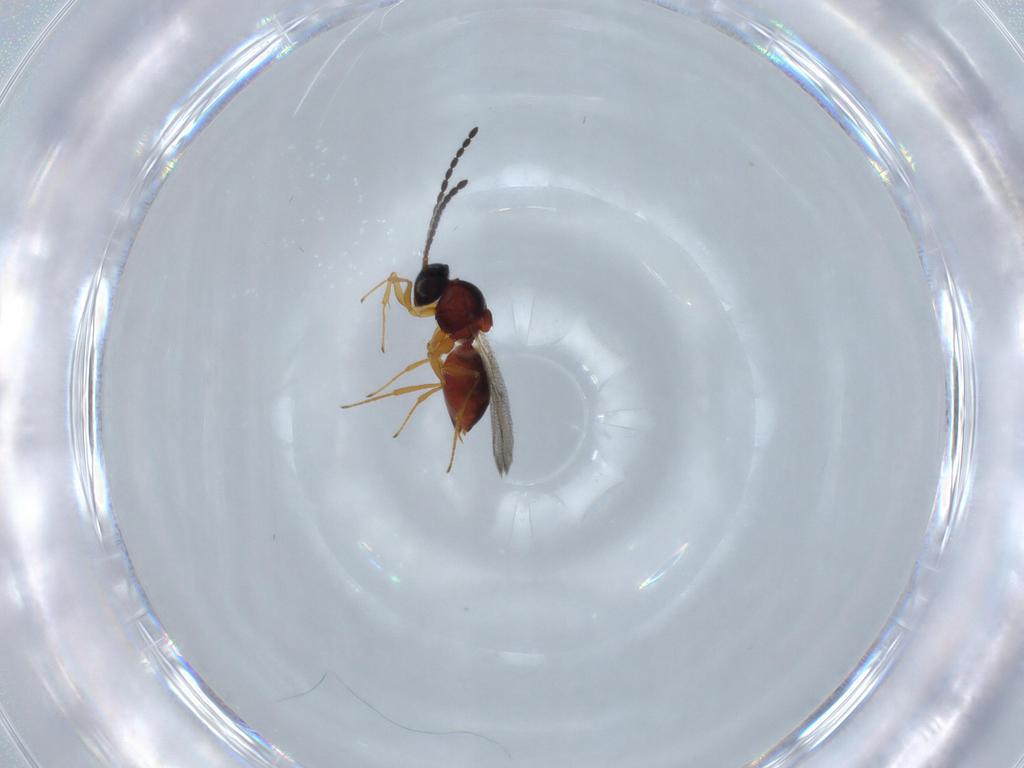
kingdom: Animalia
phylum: Arthropoda
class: Insecta
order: Hymenoptera
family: Figitidae
